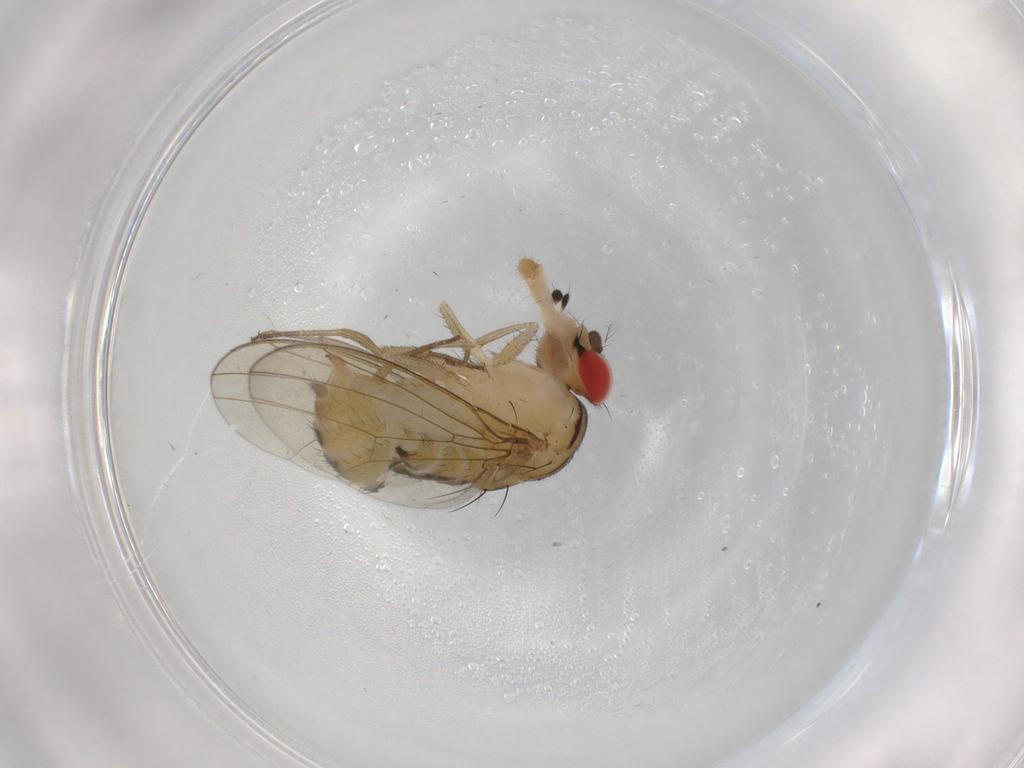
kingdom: Animalia
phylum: Arthropoda
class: Insecta
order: Diptera
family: Drosophilidae
